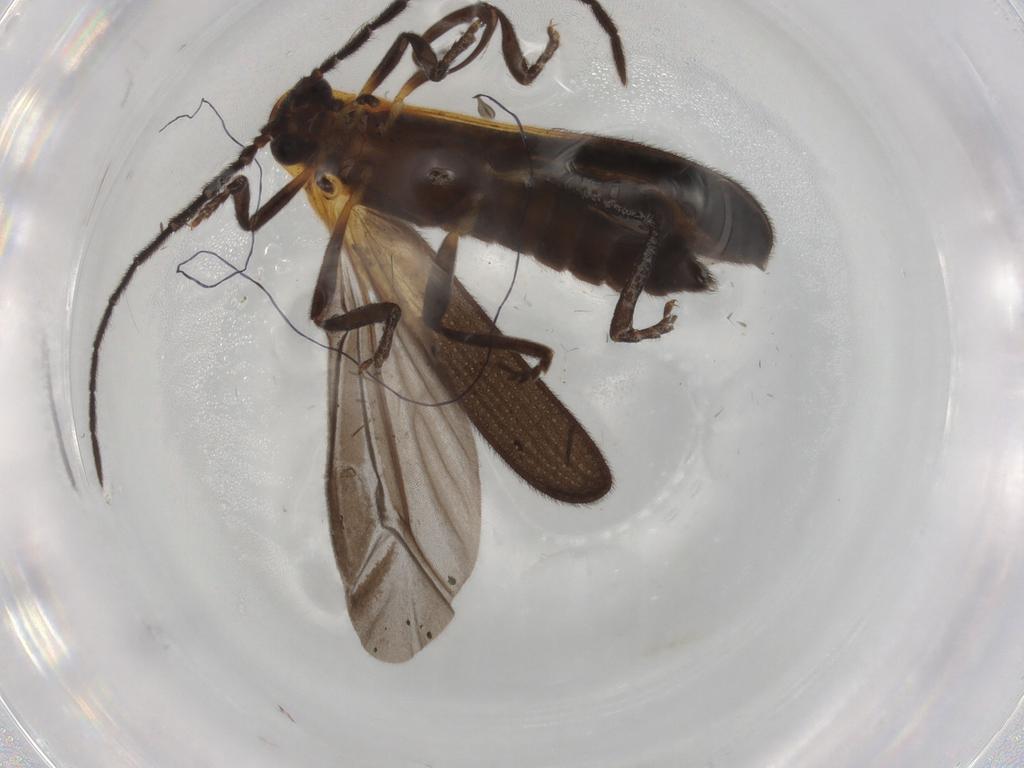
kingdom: Animalia
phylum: Arthropoda
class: Insecta
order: Coleoptera
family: Lycidae
